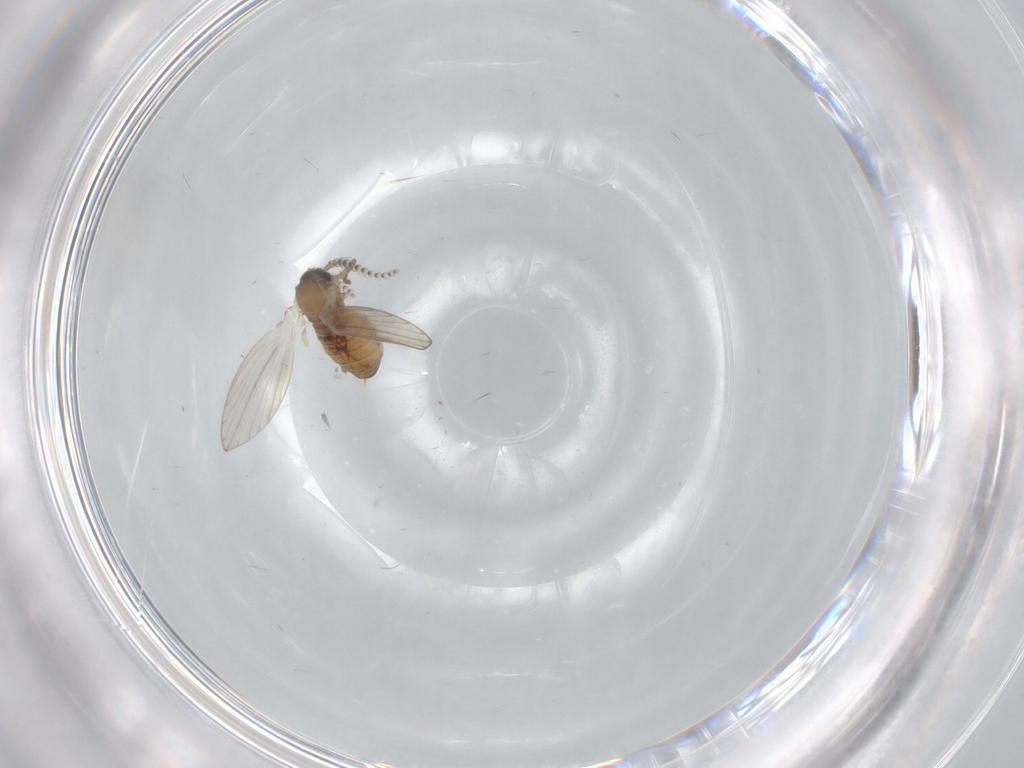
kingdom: Animalia
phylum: Arthropoda
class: Insecta
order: Diptera
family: Psychodidae
